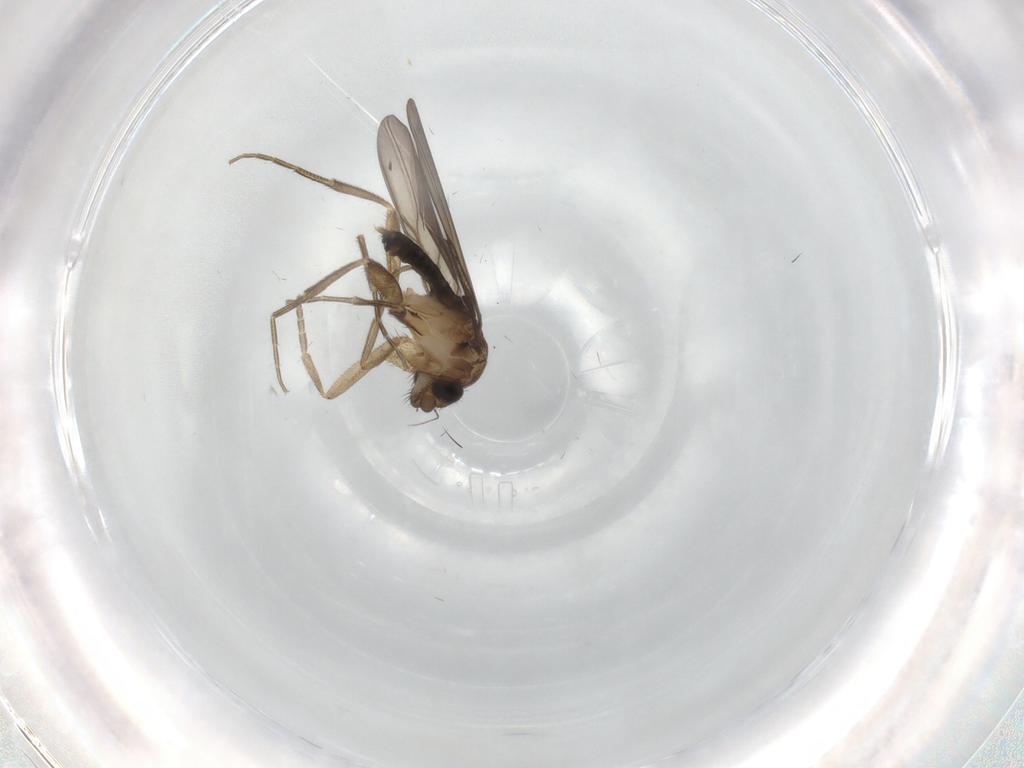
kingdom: Animalia
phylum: Arthropoda
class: Insecta
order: Diptera
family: Phoridae
